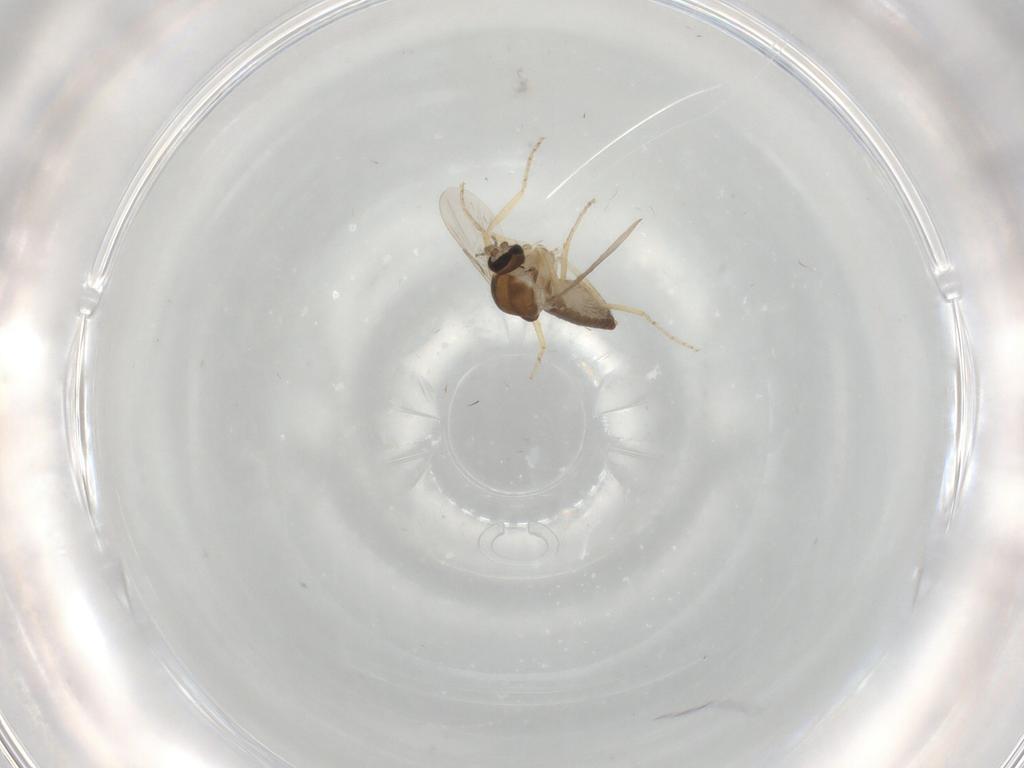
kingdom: Animalia
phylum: Arthropoda
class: Insecta
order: Diptera
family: Ceratopogonidae
